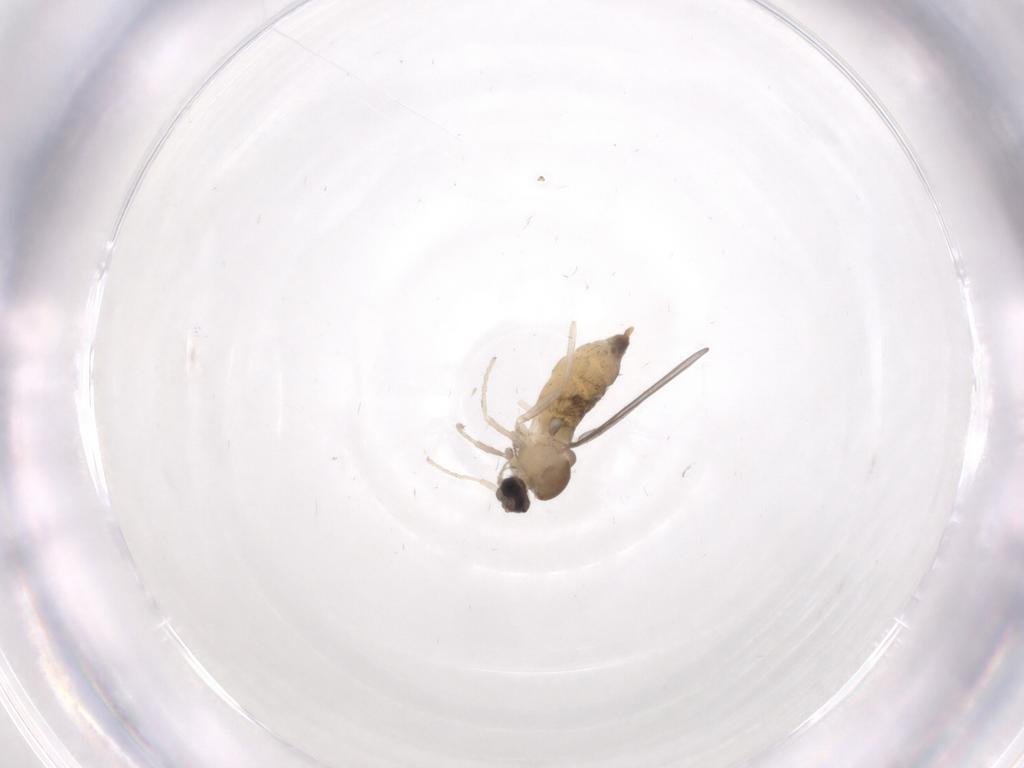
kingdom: Animalia
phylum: Arthropoda
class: Insecta
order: Diptera
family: Cecidomyiidae
